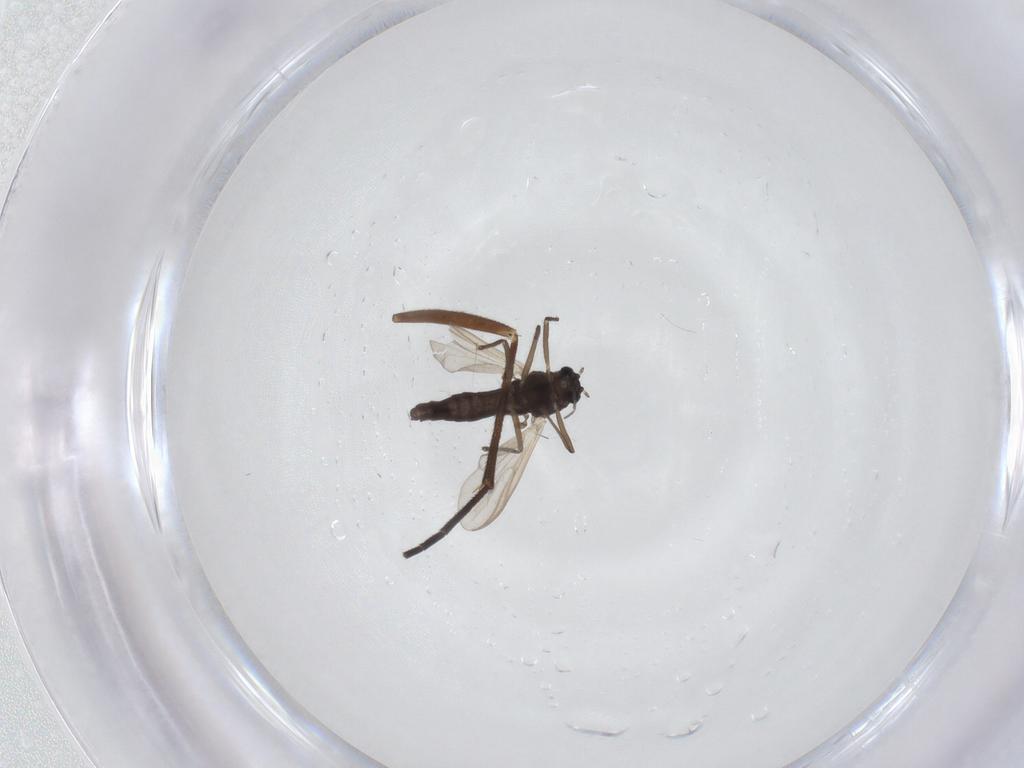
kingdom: Animalia
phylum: Arthropoda
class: Insecta
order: Diptera
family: Sciaridae
